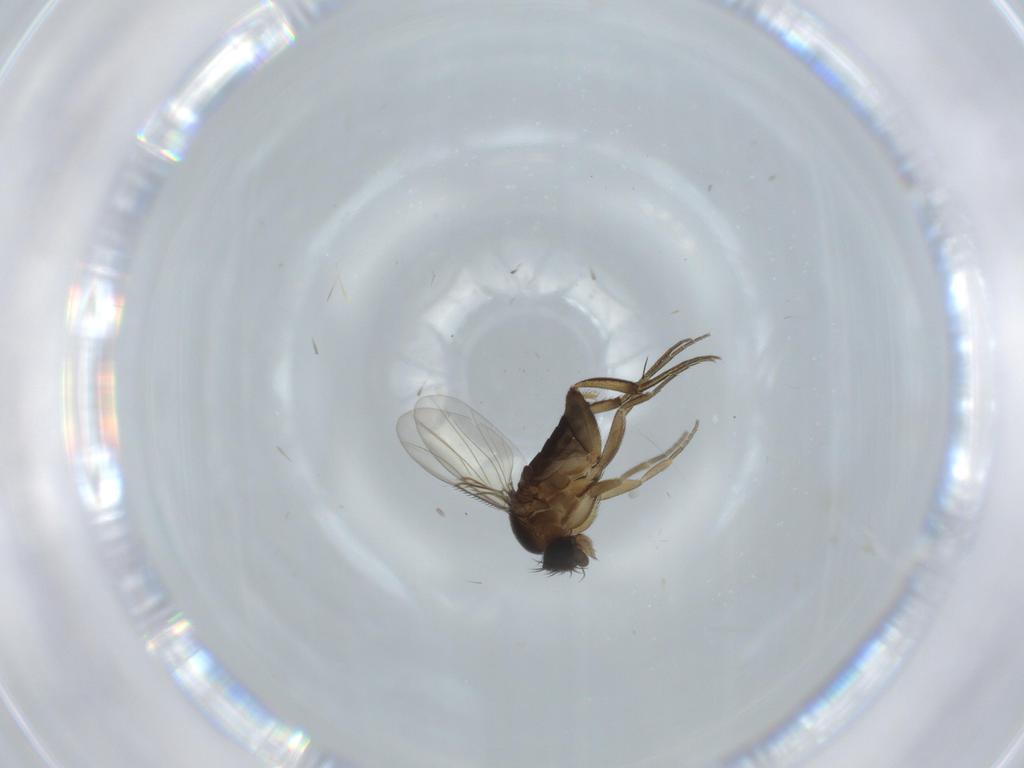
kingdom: Animalia
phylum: Arthropoda
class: Insecta
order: Diptera
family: Phoridae
